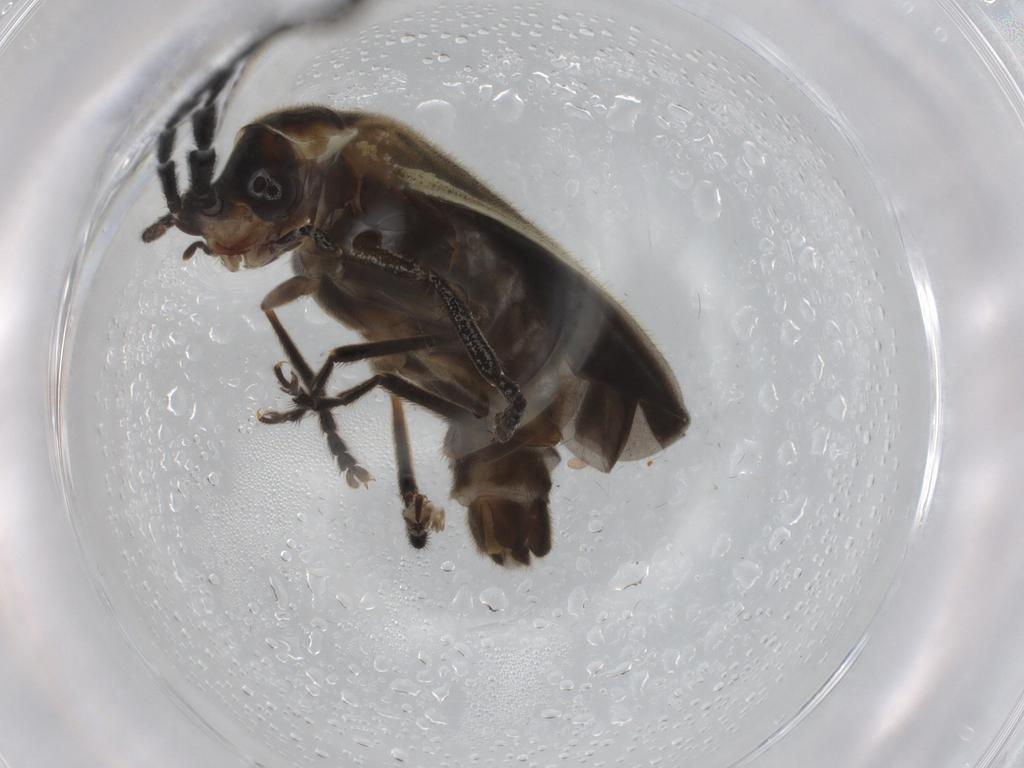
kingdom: Animalia
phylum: Arthropoda
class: Insecta
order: Coleoptera
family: Cantharidae
